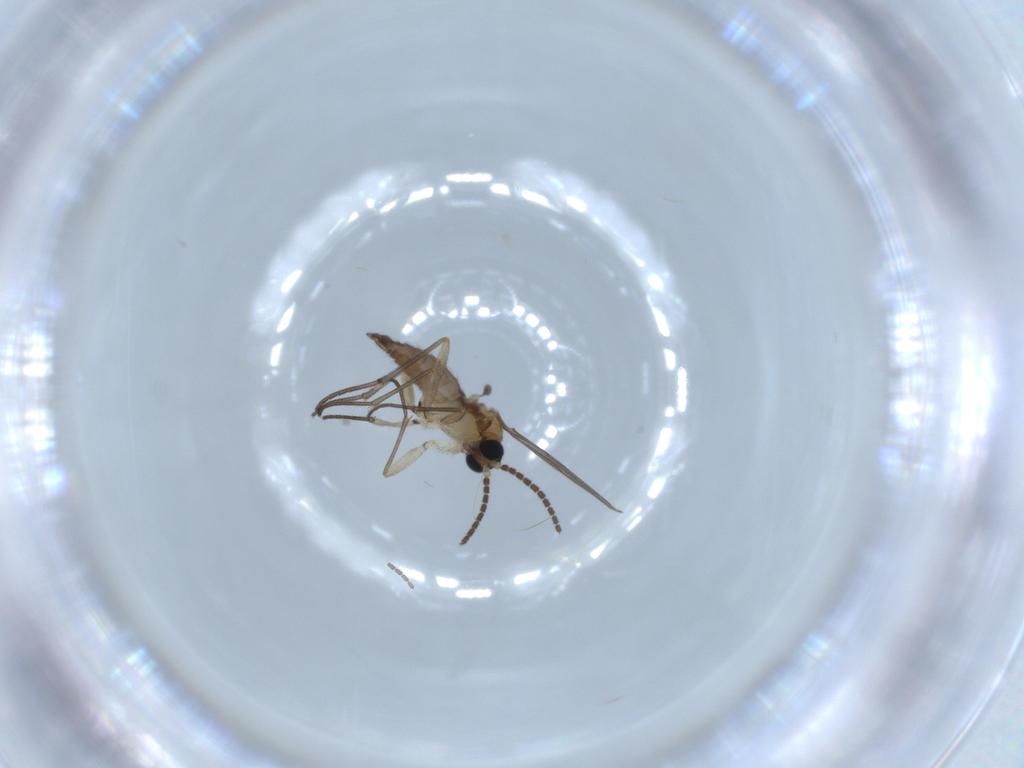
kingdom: Animalia
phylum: Arthropoda
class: Insecta
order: Diptera
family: Sciaridae
